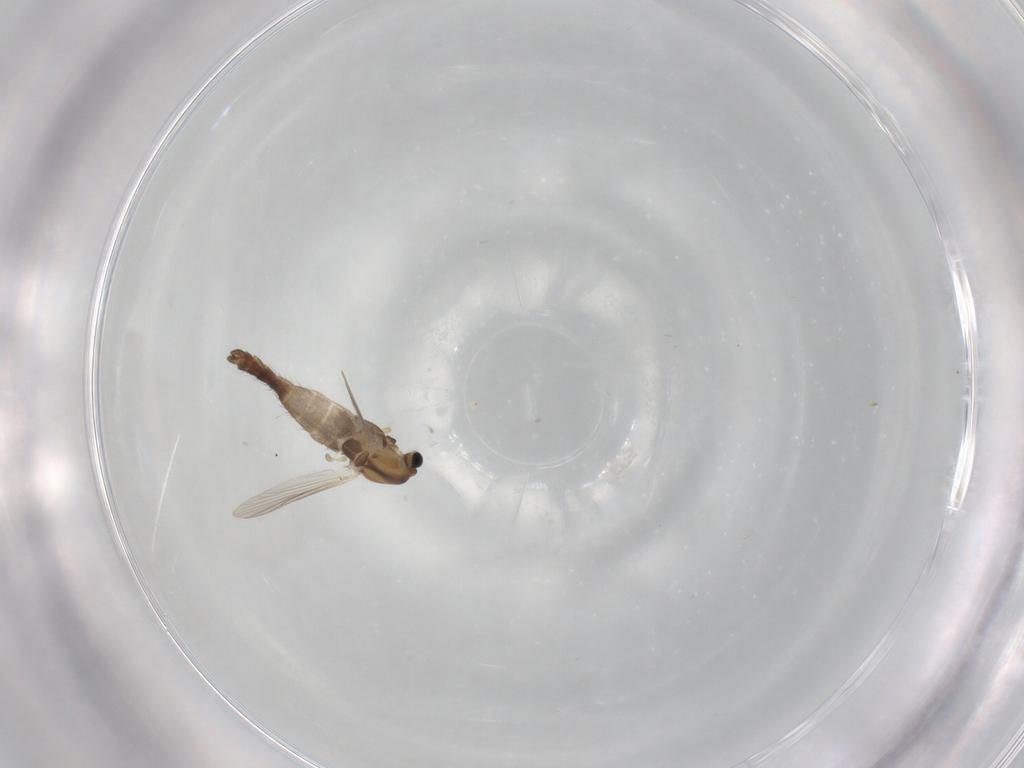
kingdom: Animalia
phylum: Arthropoda
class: Insecta
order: Diptera
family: Chironomidae
